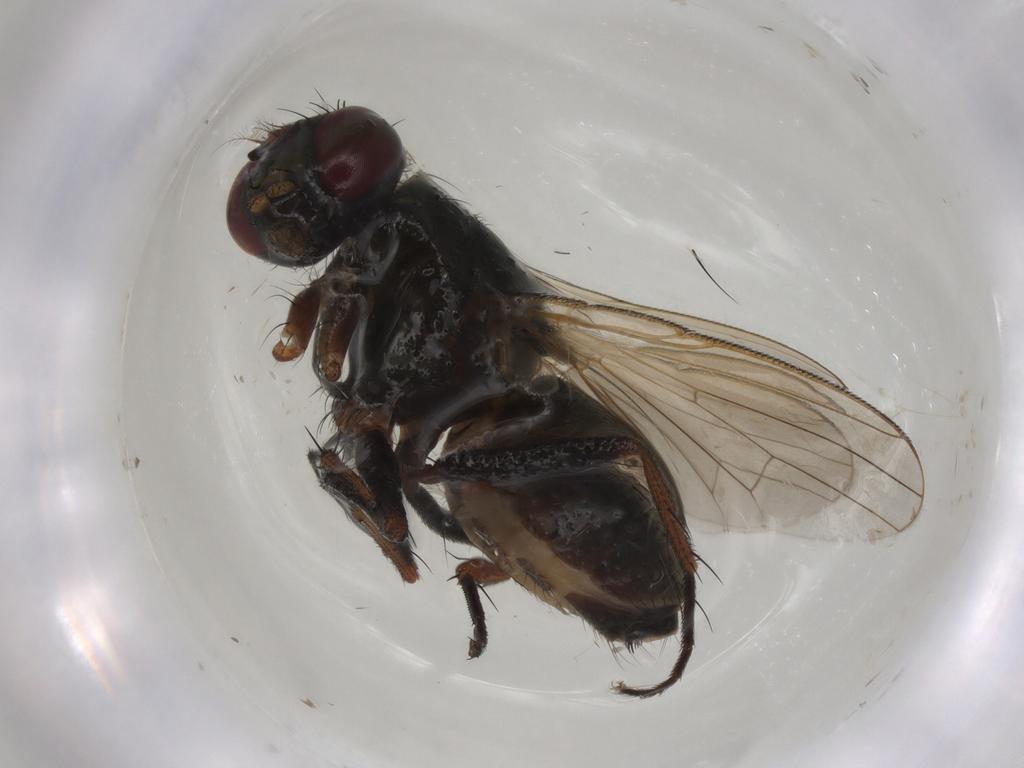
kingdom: Animalia
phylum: Arthropoda
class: Insecta
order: Diptera
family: Muscidae
